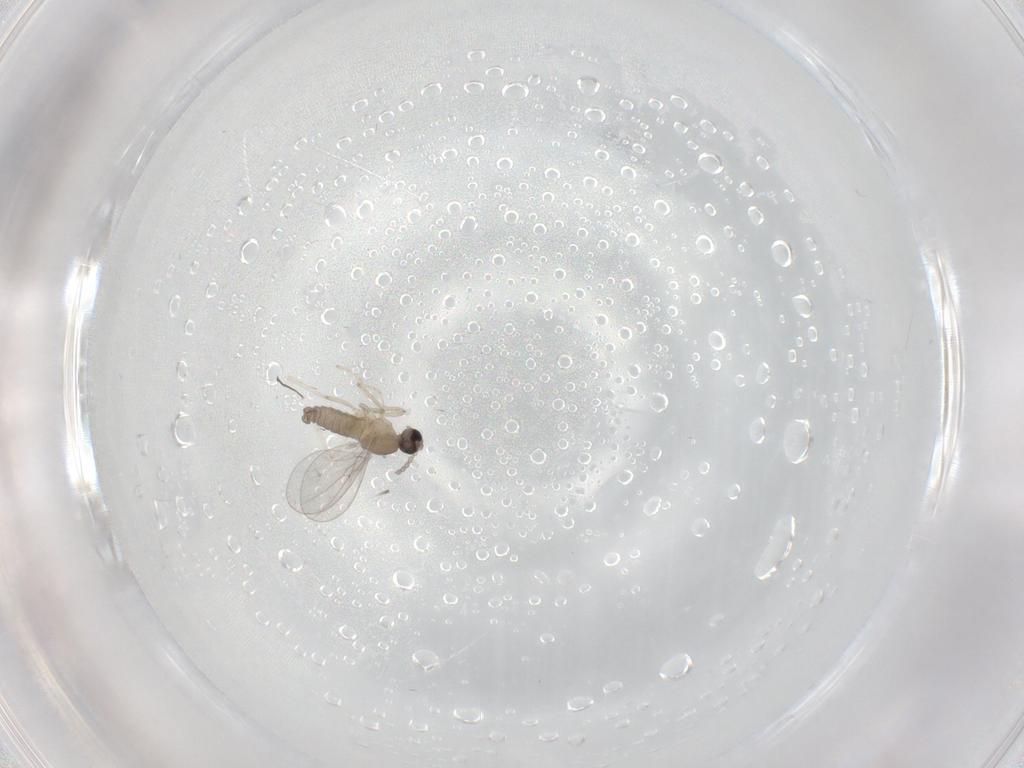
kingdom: Animalia
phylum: Arthropoda
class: Insecta
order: Diptera
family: Cecidomyiidae
